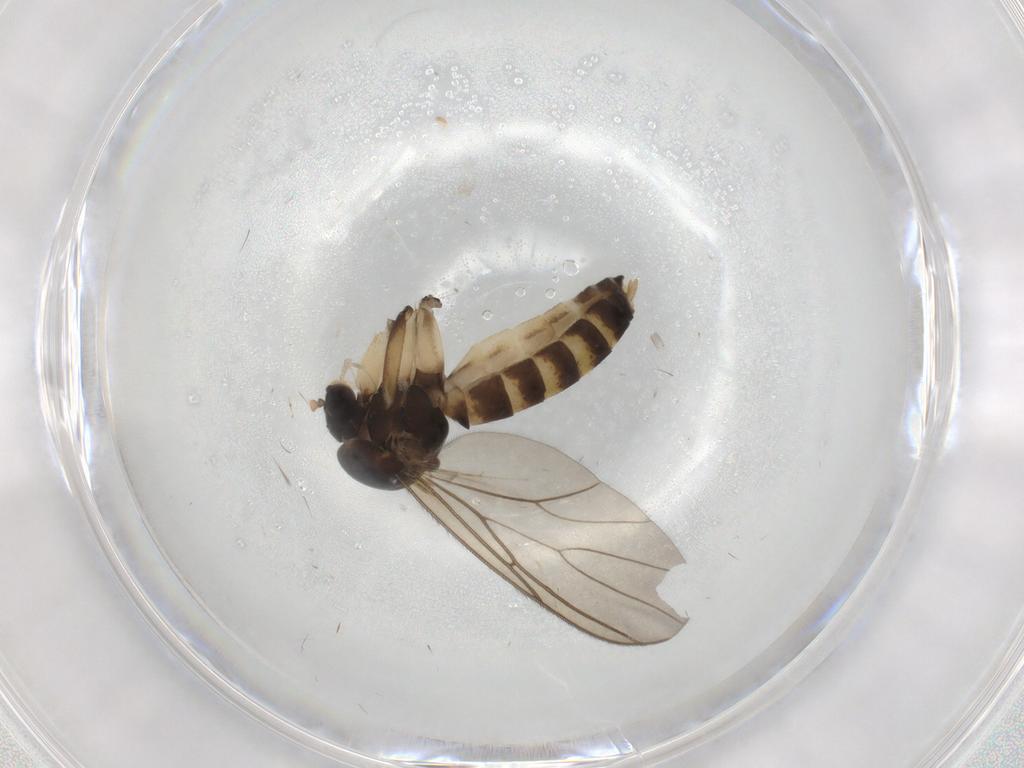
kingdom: Animalia
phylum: Arthropoda
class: Insecta
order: Diptera
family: Mycetophilidae
